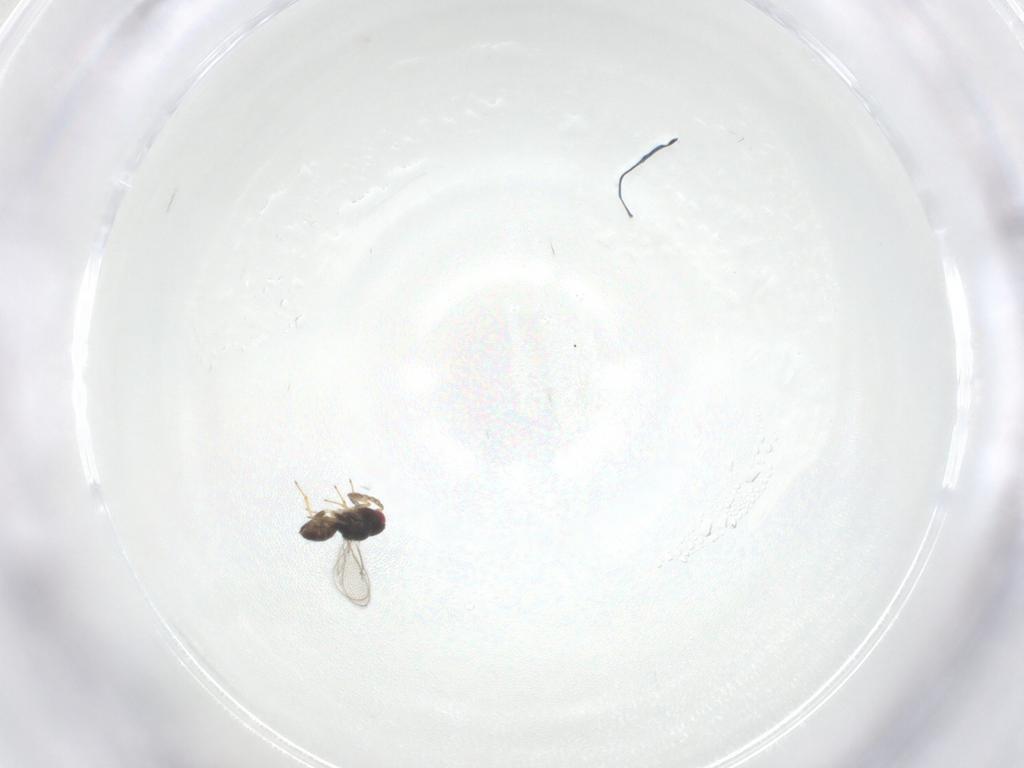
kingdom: Animalia
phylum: Arthropoda
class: Insecta
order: Hymenoptera
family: Eulophidae
